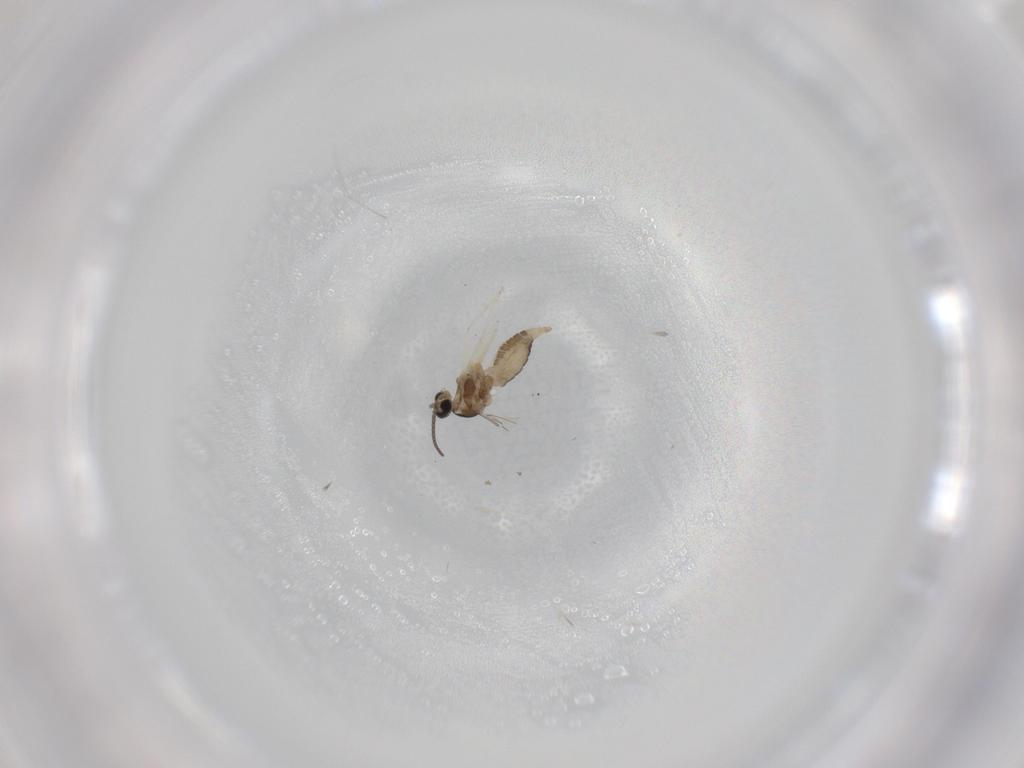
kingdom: Animalia
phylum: Arthropoda
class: Insecta
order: Diptera
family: Cecidomyiidae
